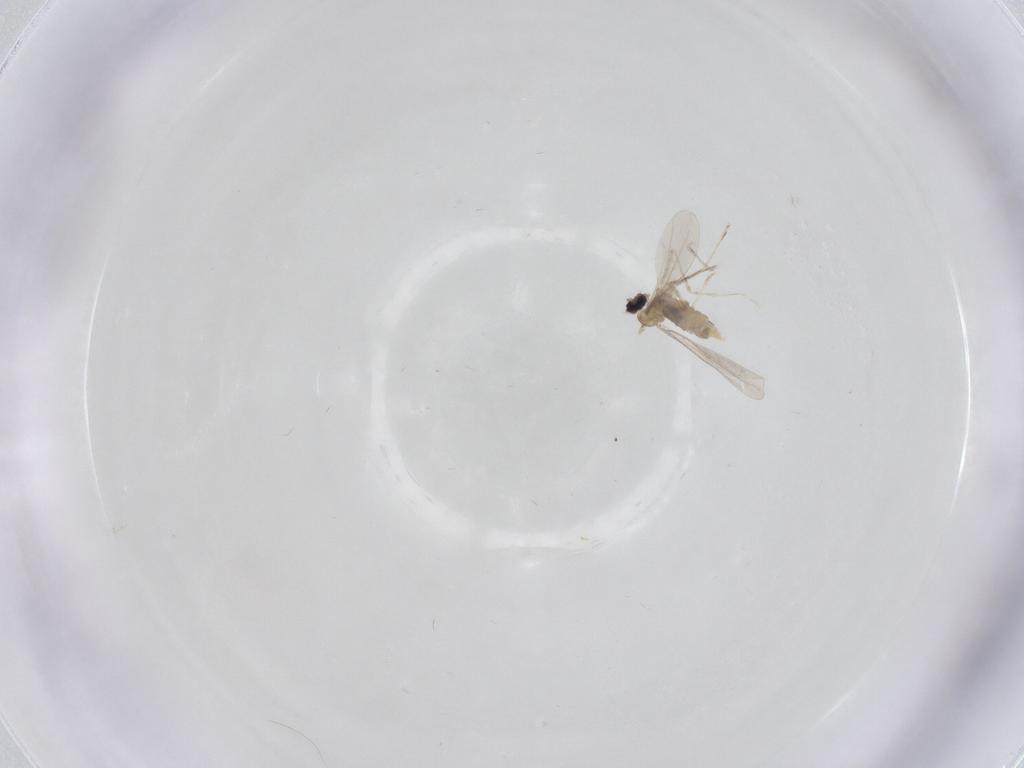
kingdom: Animalia
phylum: Arthropoda
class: Insecta
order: Diptera
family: Cecidomyiidae
